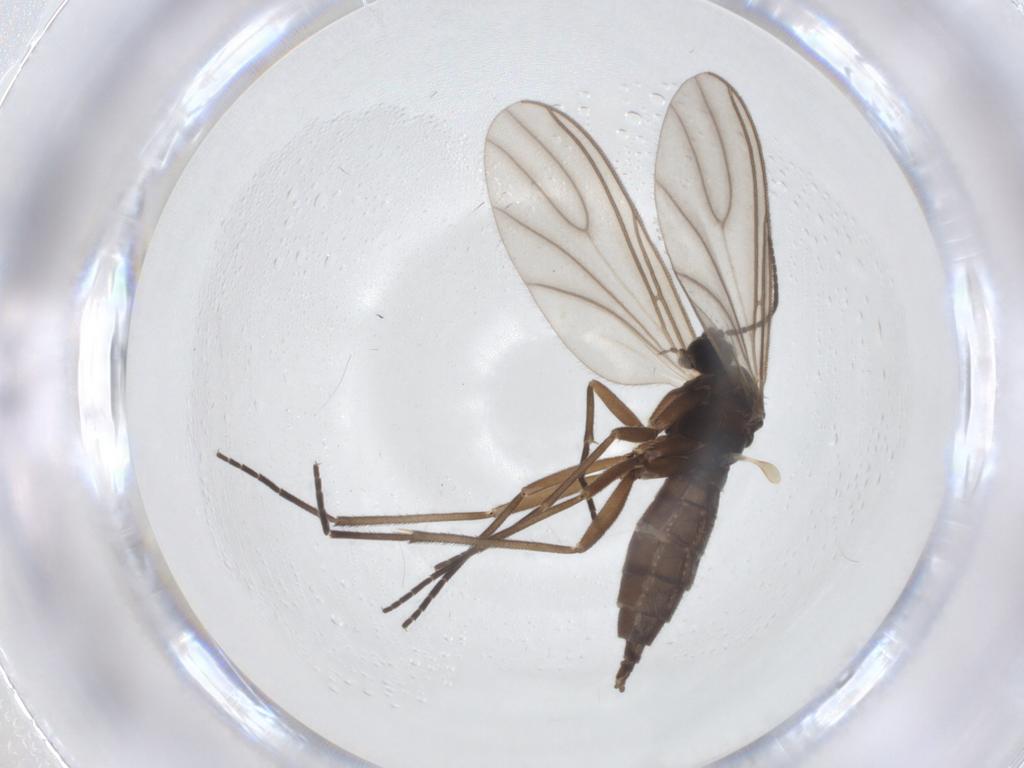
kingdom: Animalia
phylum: Arthropoda
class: Insecta
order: Diptera
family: Sciaridae
